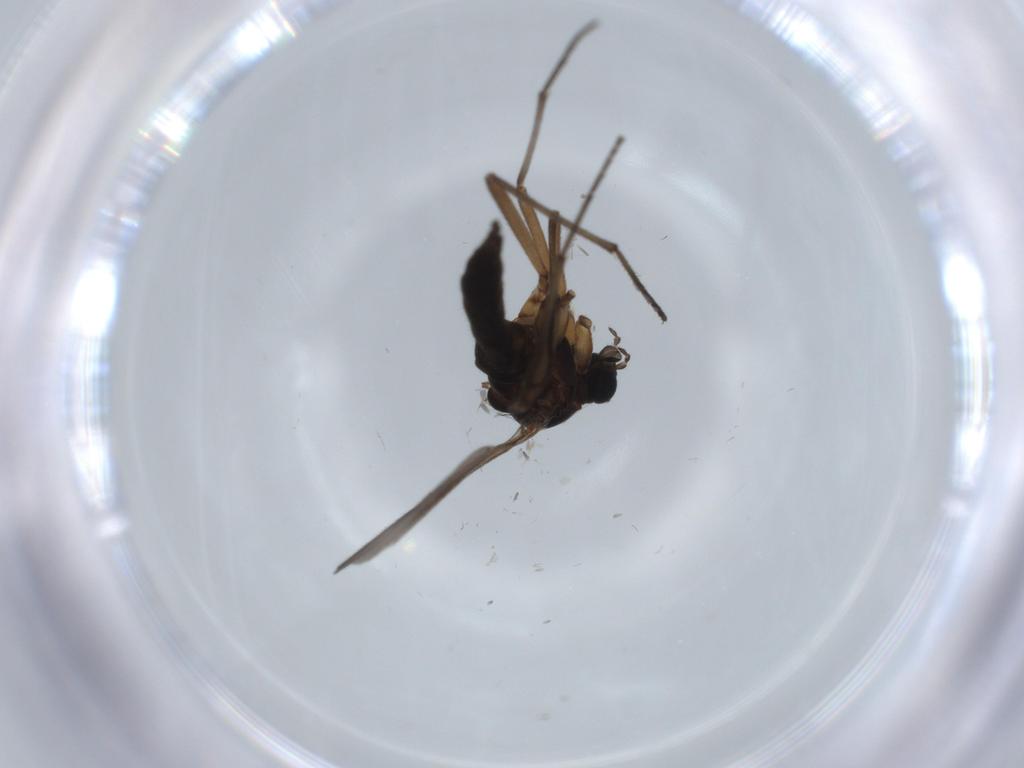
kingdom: Animalia
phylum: Arthropoda
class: Insecta
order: Diptera
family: Sciaridae
